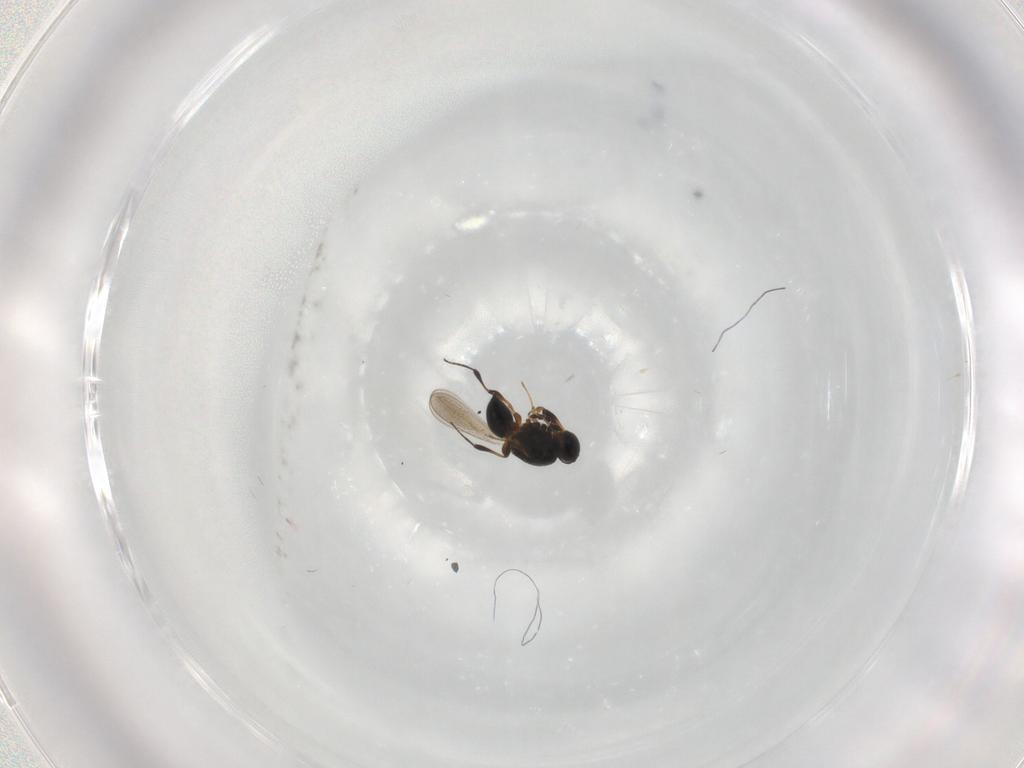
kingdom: Animalia
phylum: Arthropoda
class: Insecta
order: Hymenoptera
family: Platygastridae
